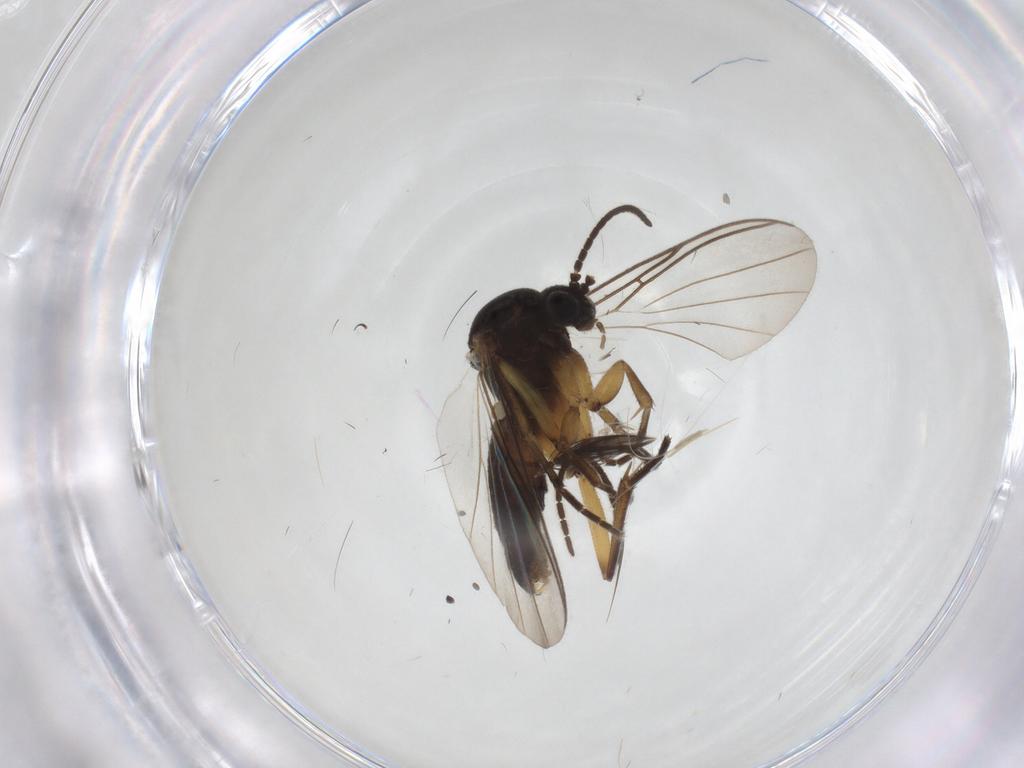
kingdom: Animalia
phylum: Arthropoda
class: Insecta
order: Diptera
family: Mycetophilidae
